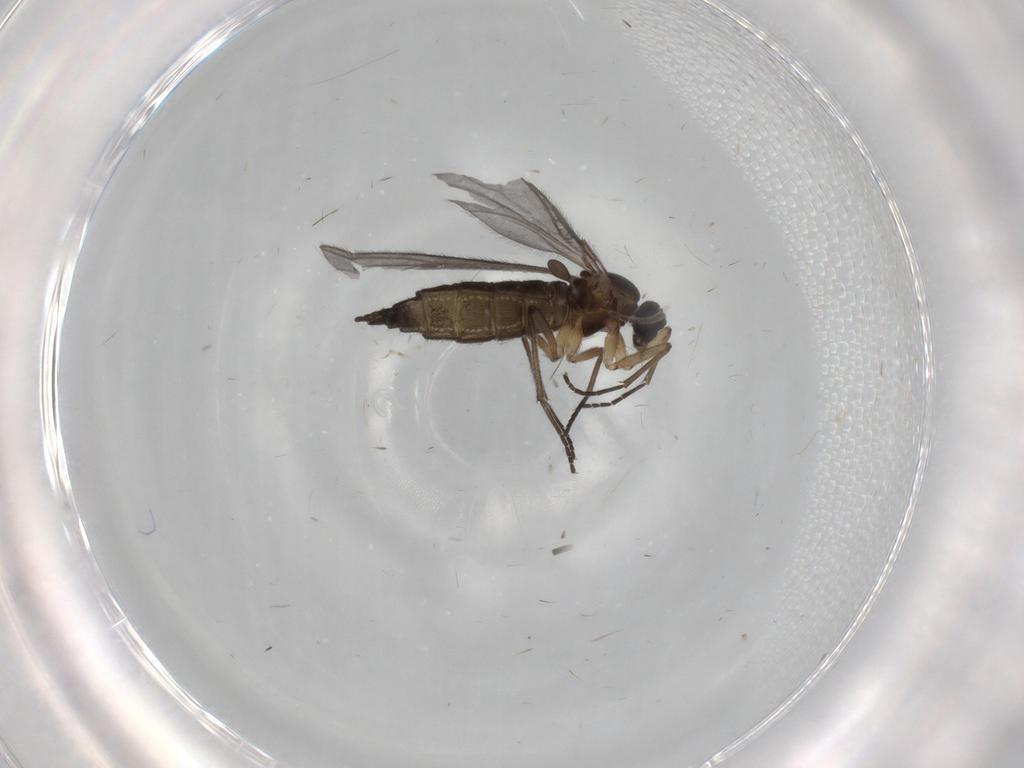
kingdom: Animalia
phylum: Arthropoda
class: Insecta
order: Diptera
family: Sciaridae
